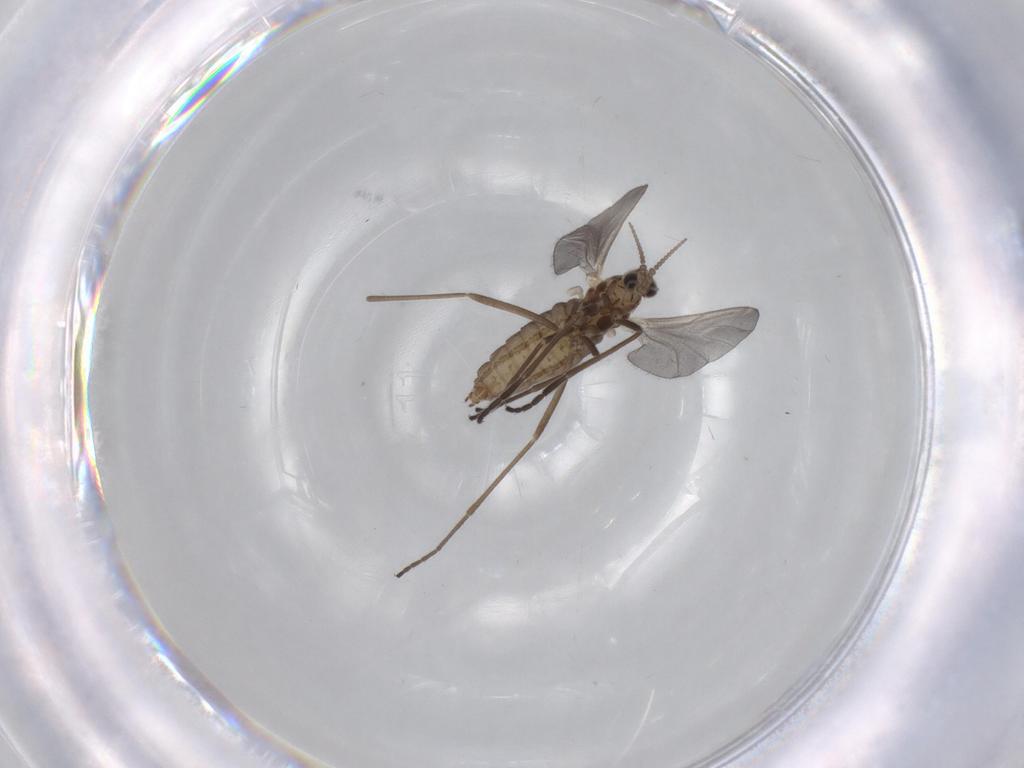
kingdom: Animalia
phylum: Arthropoda
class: Insecta
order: Diptera
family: Cecidomyiidae
